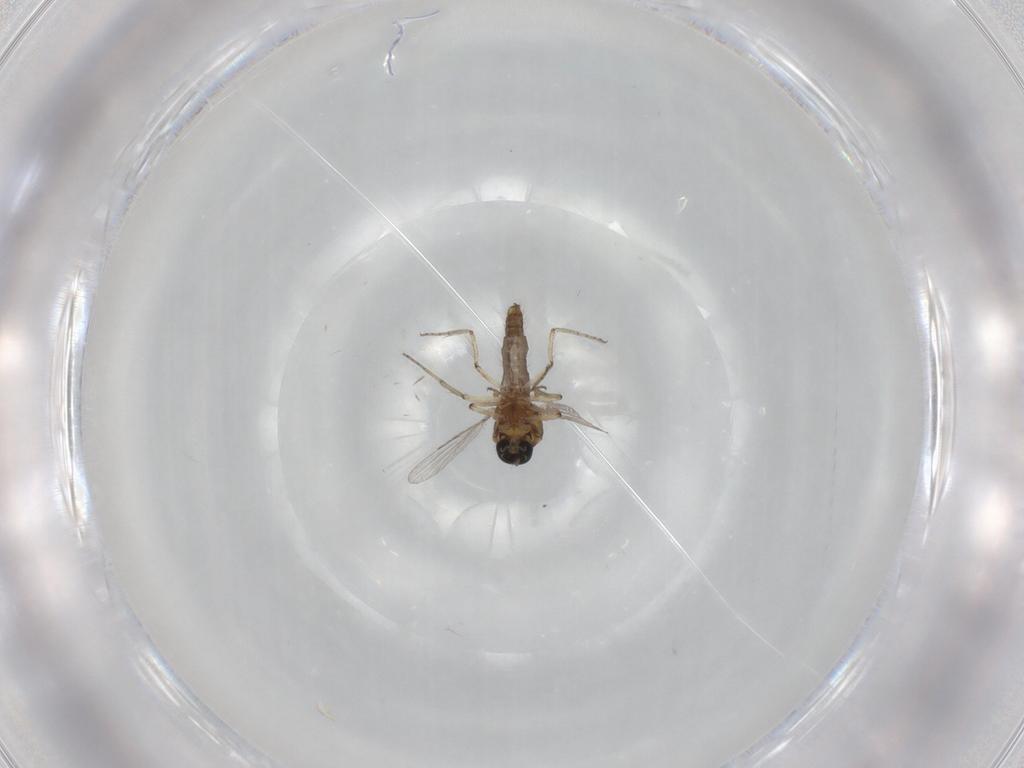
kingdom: Animalia
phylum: Arthropoda
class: Insecta
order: Diptera
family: Ceratopogonidae
